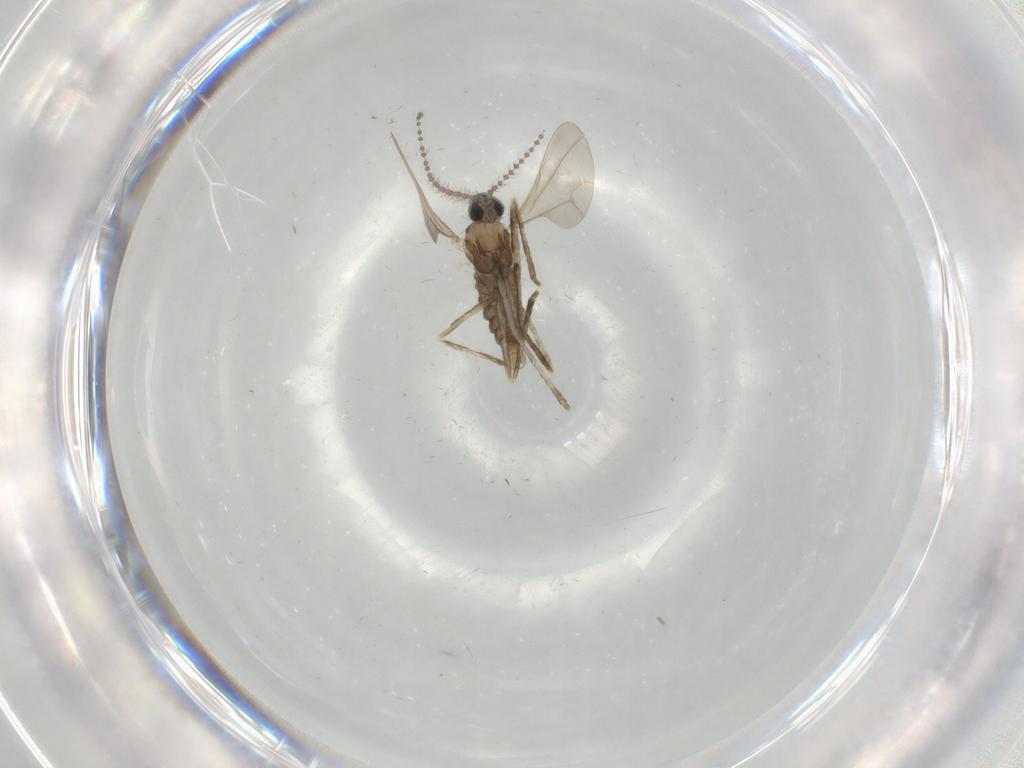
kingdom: Animalia
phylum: Arthropoda
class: Insecta
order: Diptera
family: Cecidomyiidae
